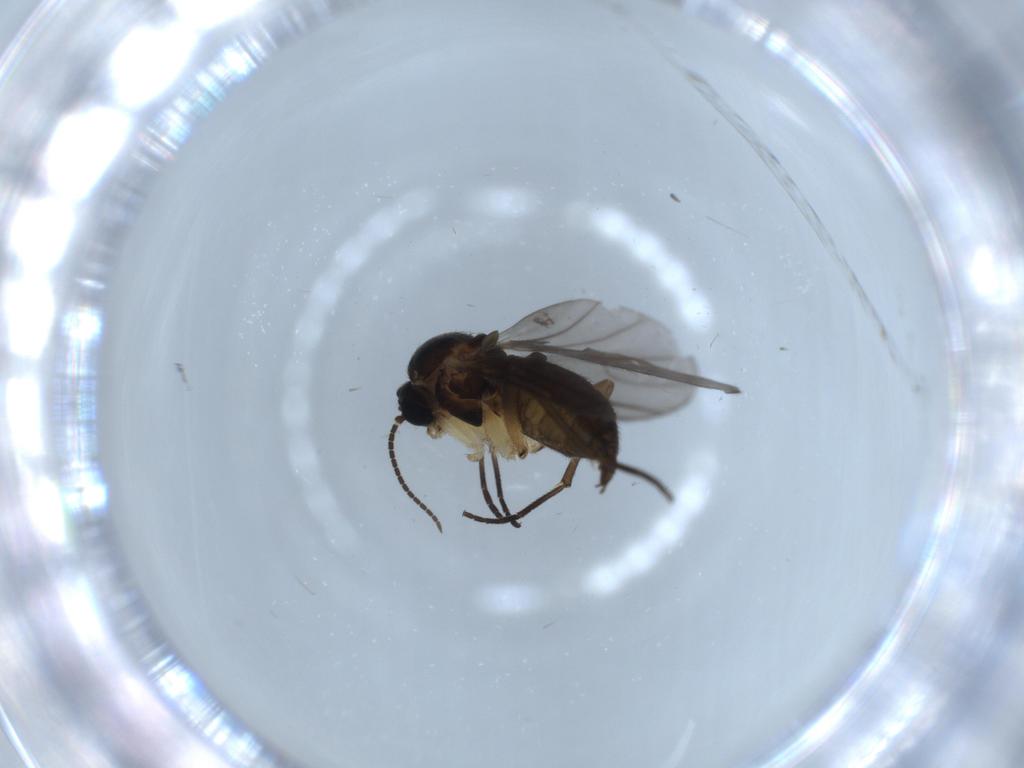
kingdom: Animalia
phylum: Arthropoda
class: Insecta
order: Diptera
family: Sciaridae
